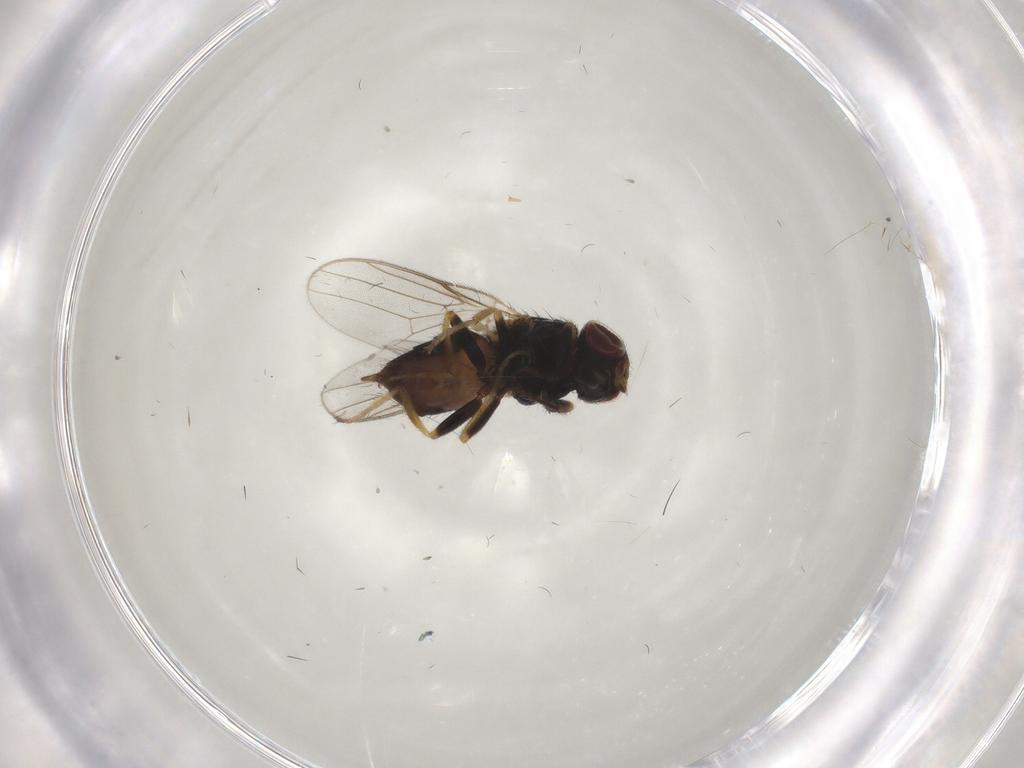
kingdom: Animalia
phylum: Arthropoda
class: Insecta
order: Diptera
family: Chloropidae
